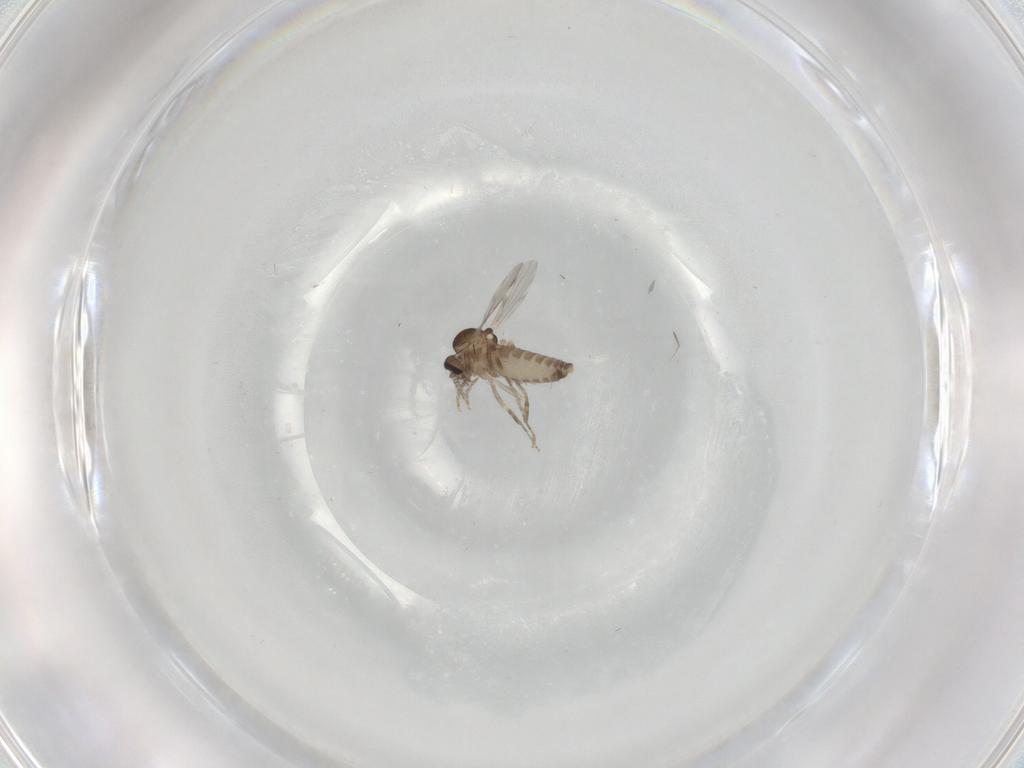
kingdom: Animalia
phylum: Arthropoda
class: Insecta
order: Diptera
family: Ceratopogonidae
